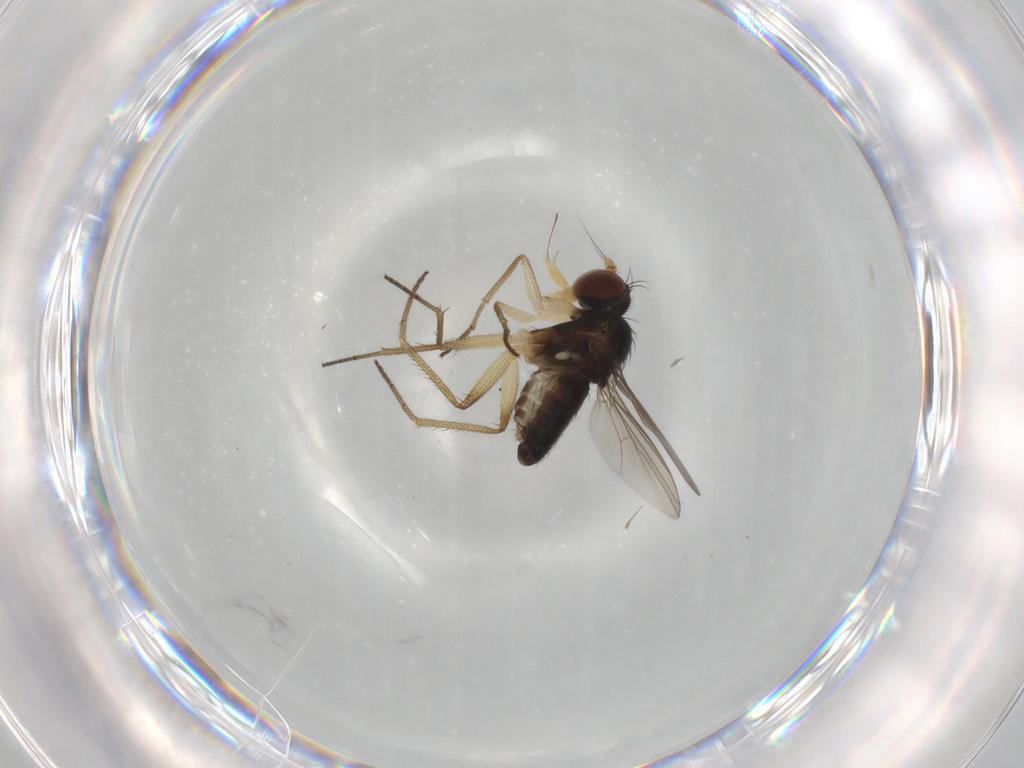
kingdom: Animalia
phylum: Arthropoda
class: Insecta
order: Diptera
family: Dolichopodidae
